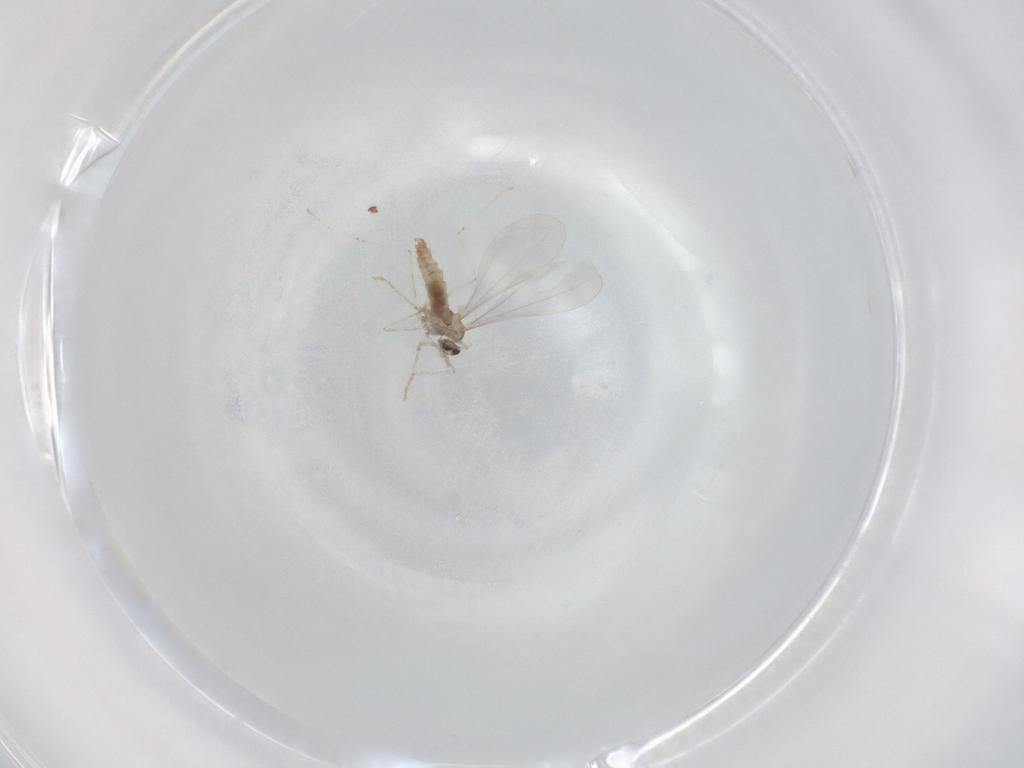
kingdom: Animalia
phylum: Arthropoda
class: Insecta
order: Diptera
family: Cecidomyiidae
